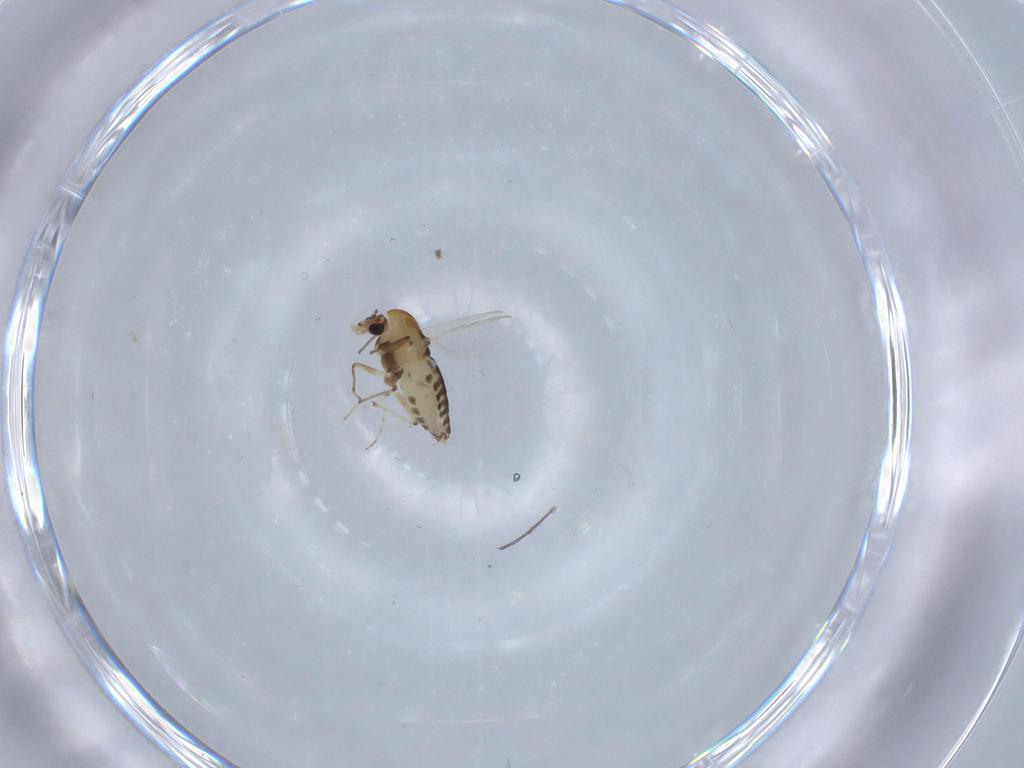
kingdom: Animalia
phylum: Arthropoda
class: Insecta
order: Diptera
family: Chironomidae
